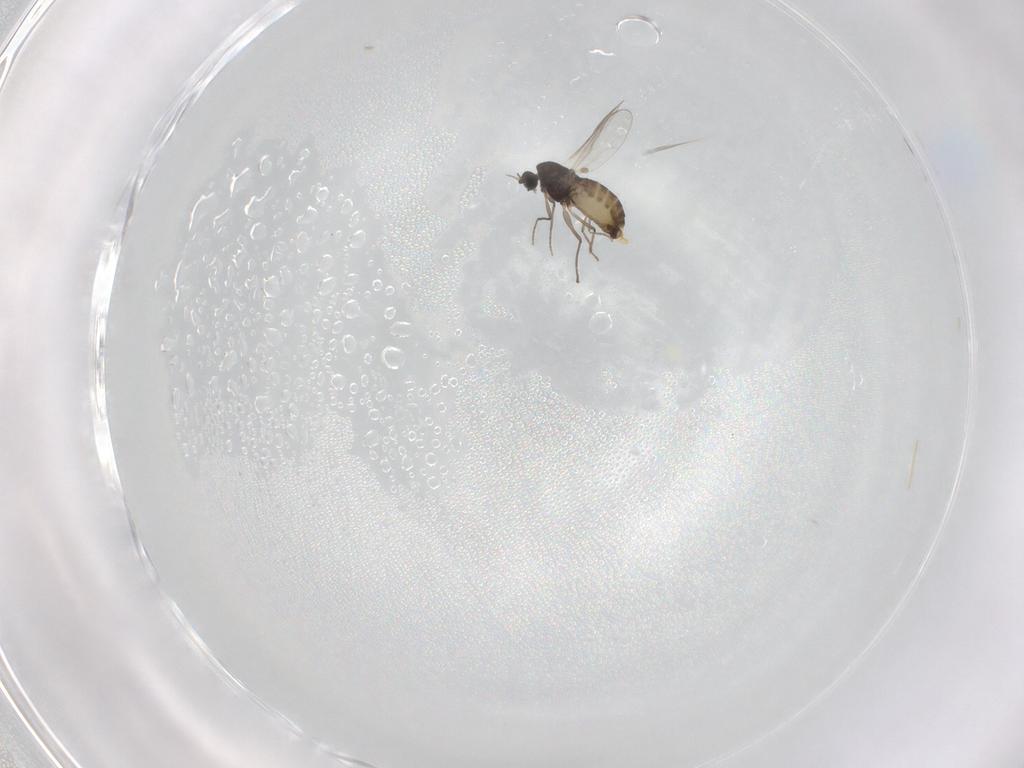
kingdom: Animalia
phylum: Arthropoda
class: Insecta
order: Diptera
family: Chironomidae
